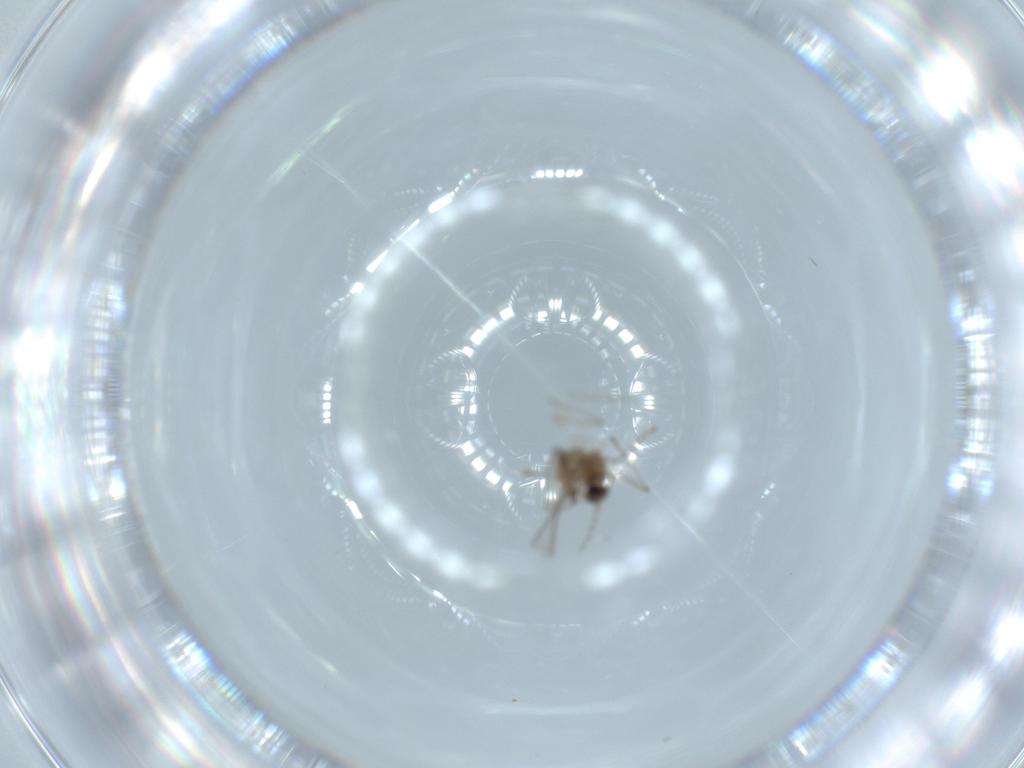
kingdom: Animalia
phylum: Arthropoda
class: Insecta
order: Diptera
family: Chironomidae
